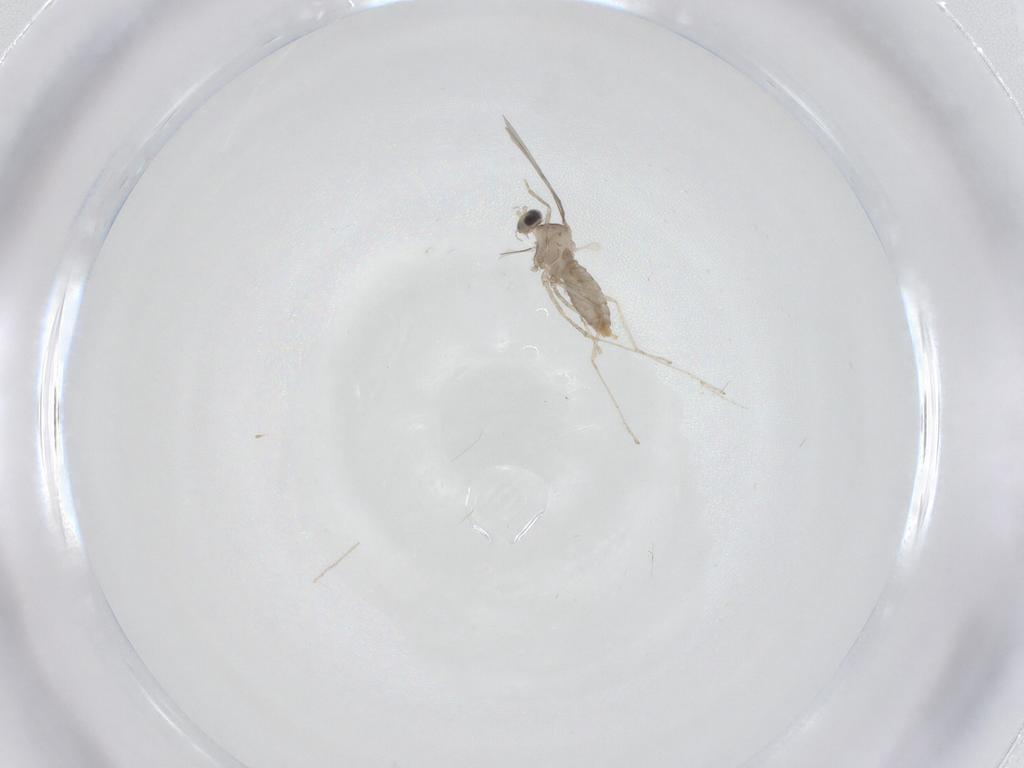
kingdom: Animalia
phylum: Arthropoda
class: Insecta
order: Diptera
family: Cecidomyiidae
